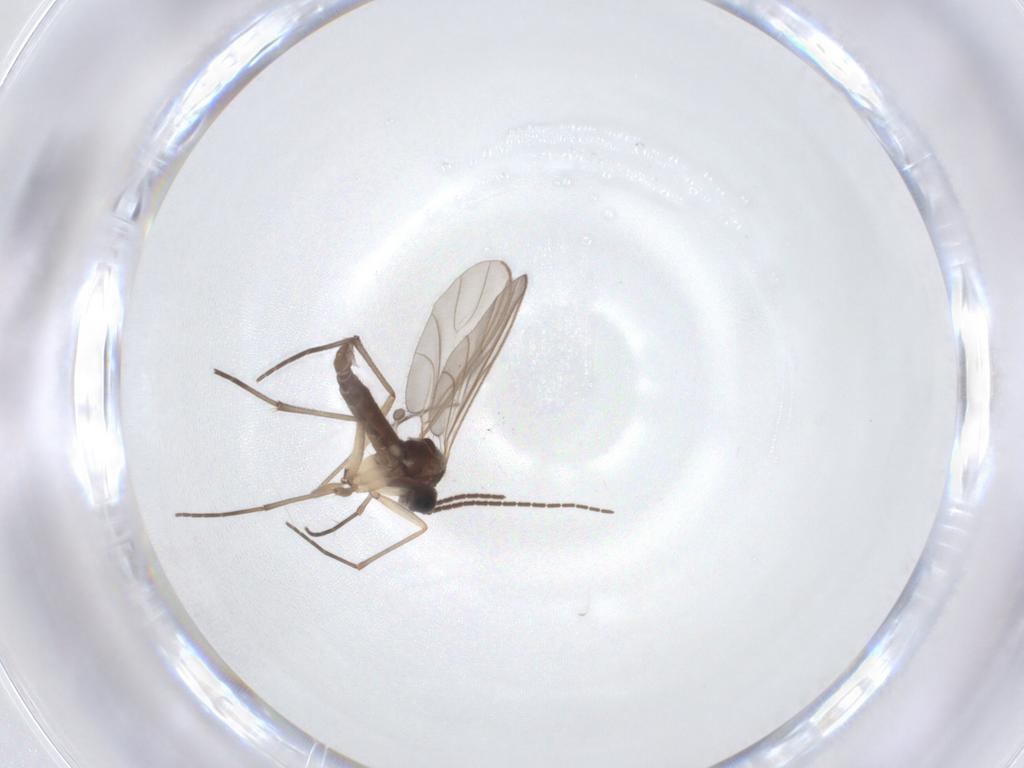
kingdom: Animalia
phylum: Arthropoda
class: Insecta
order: Diptera
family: Sciaridae
